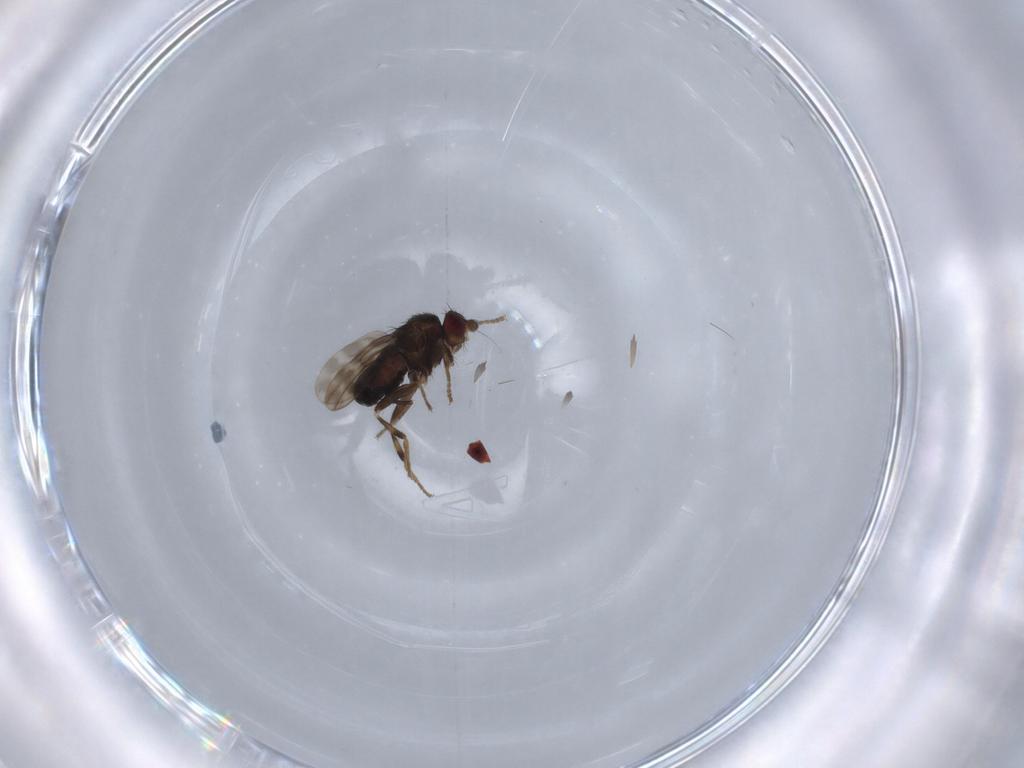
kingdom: Animalia
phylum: Arthropoda
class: Insecta
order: Diptera
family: Sphaeroceridae
